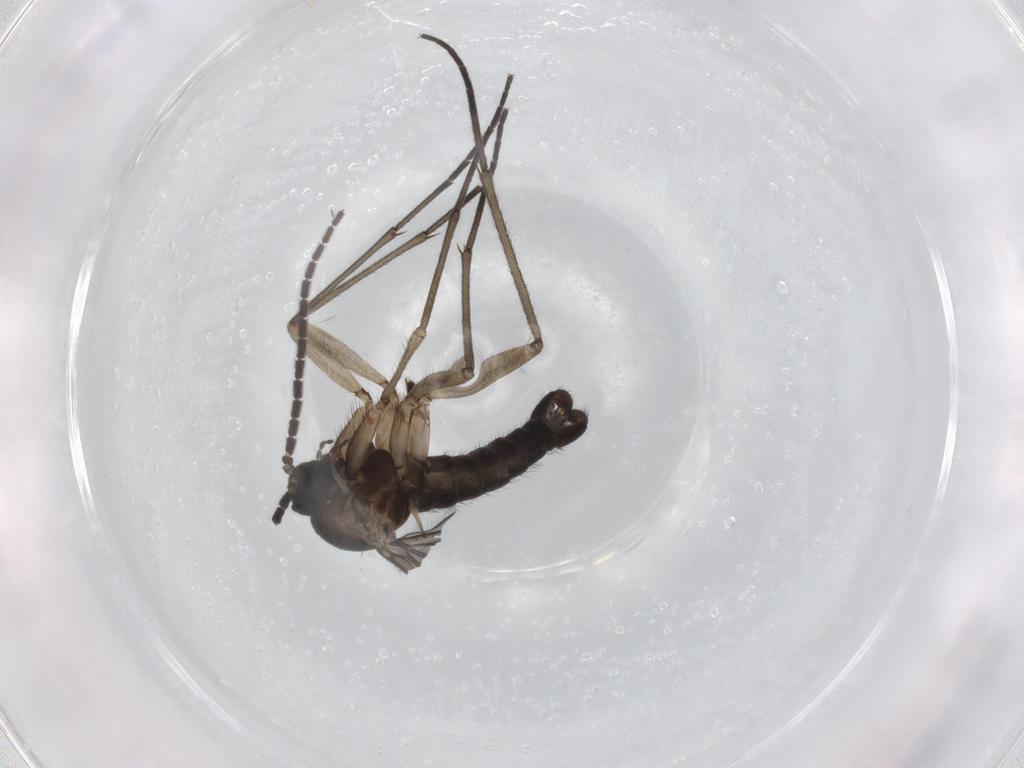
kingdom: Animalia
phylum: Arthropoda
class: Insecta
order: Diptera
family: Sciaridae
